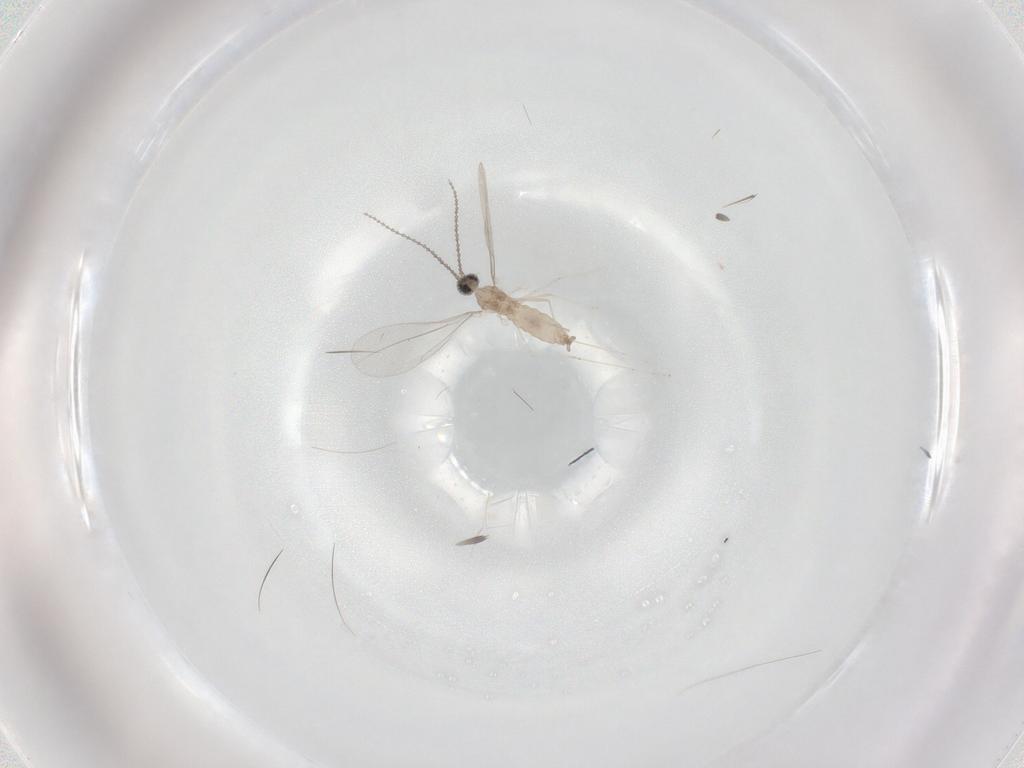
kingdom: Animalia
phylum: Arthropoda
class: Insecta
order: Diptera
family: Cecidomyiidae
